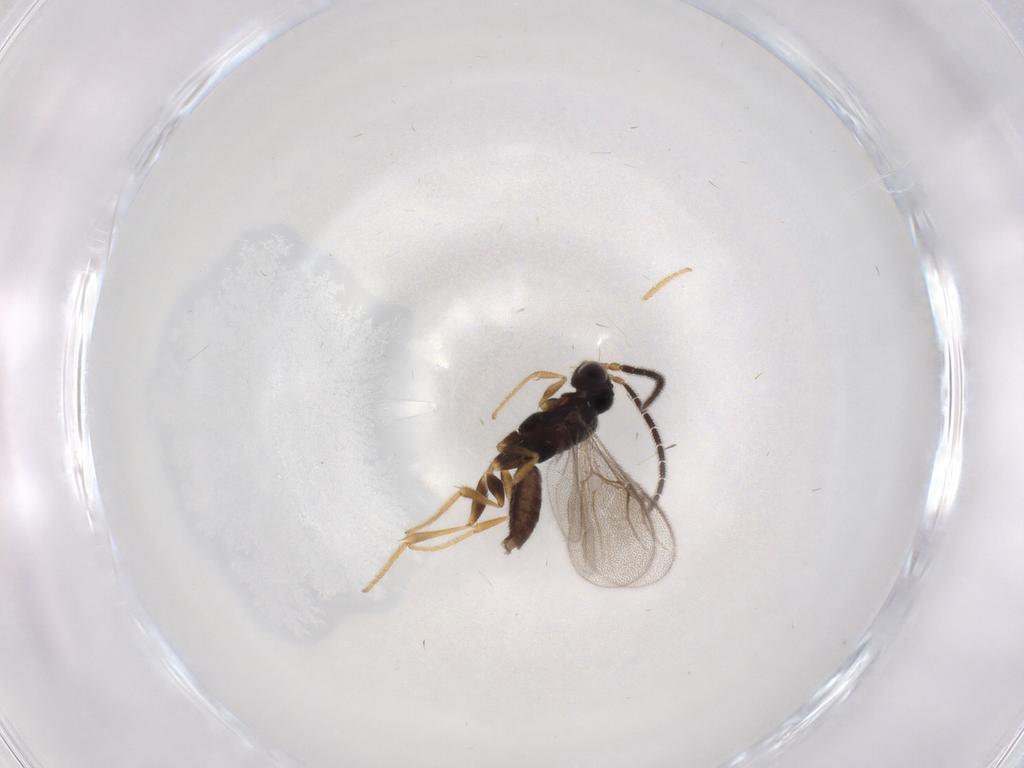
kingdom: Animalia
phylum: Arthropoda
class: Insecta
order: Hymenoptera
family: Dryinidae
